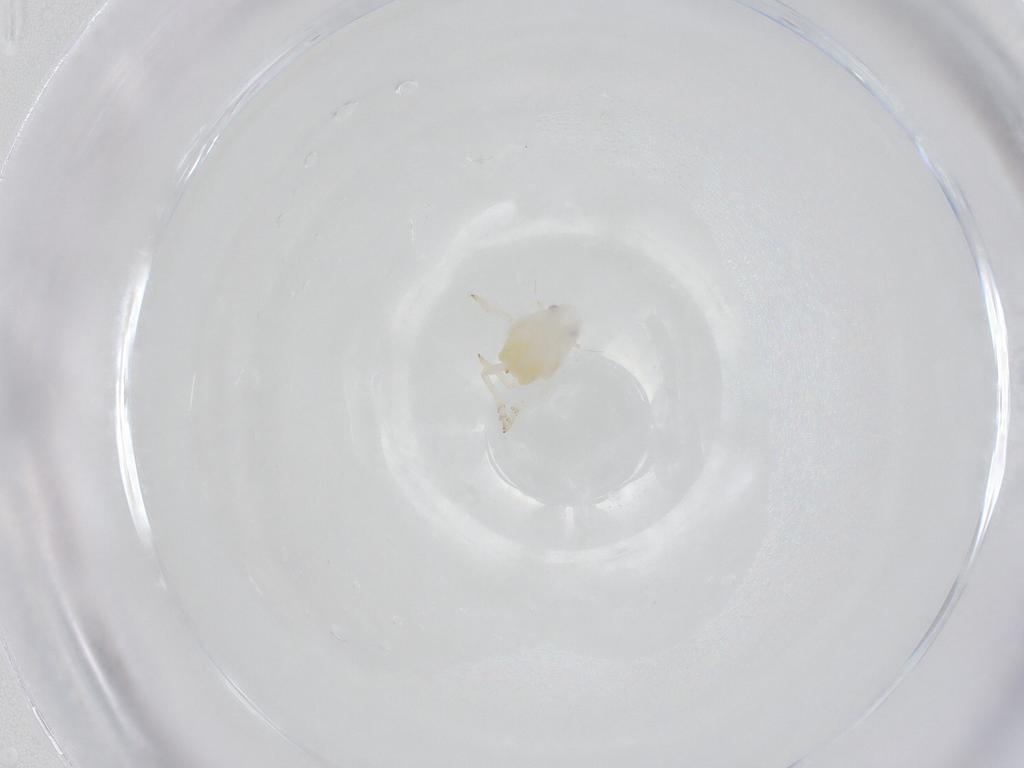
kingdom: Animalia
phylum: Arthropoda
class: Insecta
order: Hemiptera
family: Flatidae
